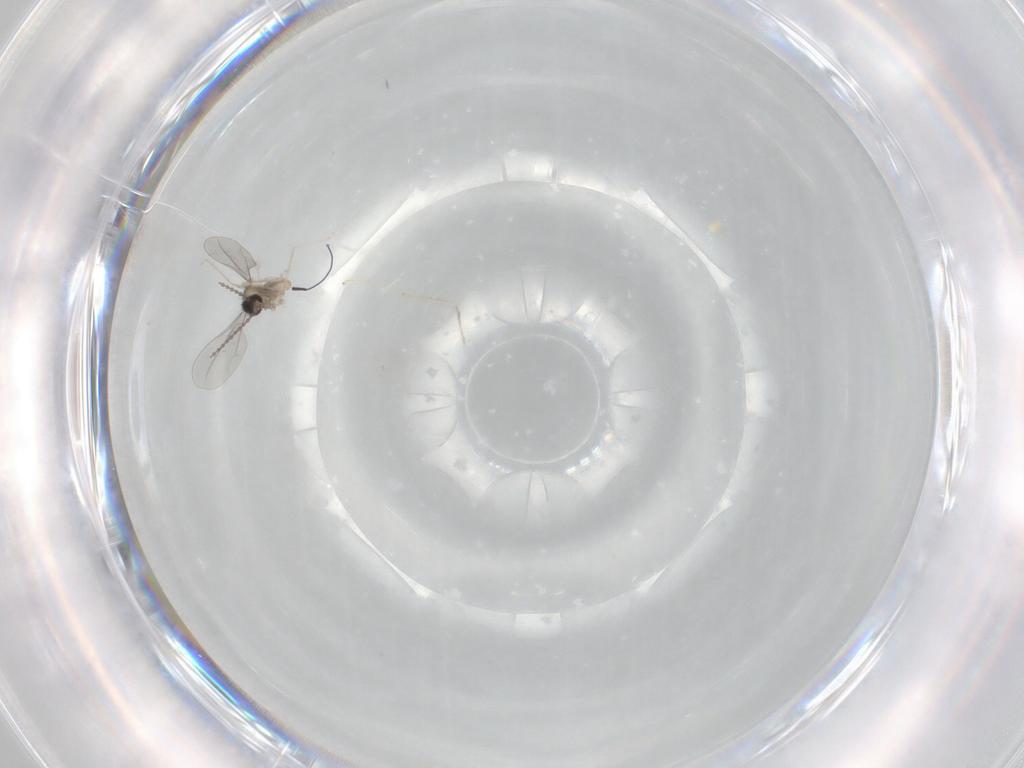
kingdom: Animalia
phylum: Arthropoda
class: Insecta
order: Diptera
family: Cecidomyiidae
